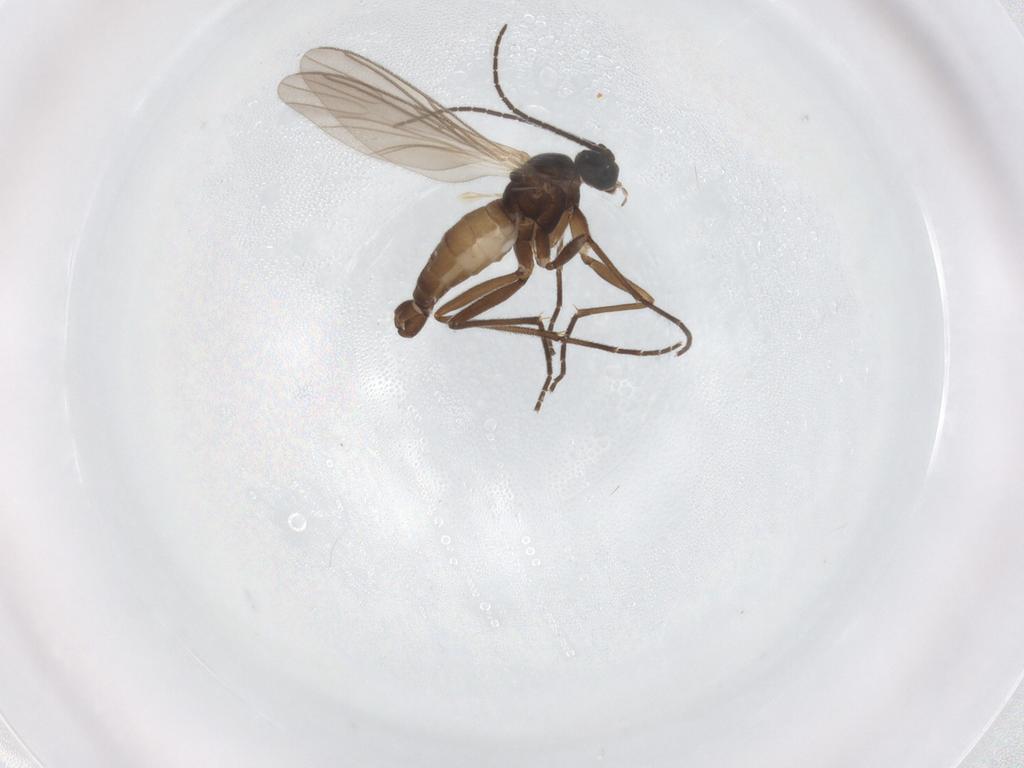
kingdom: Animalia
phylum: Arthropoda
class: Insecta
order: Diptera
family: Sciaridae
